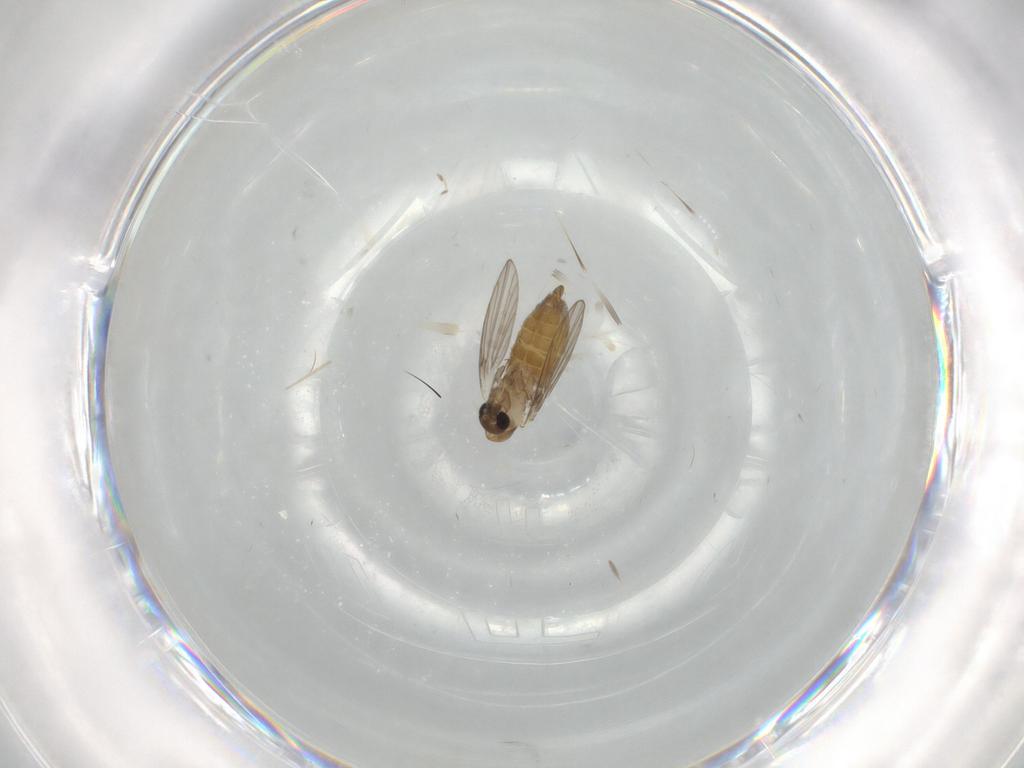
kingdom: Animalia
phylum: Arthropoda
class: Insecta
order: Diptera
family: Psychodidae
